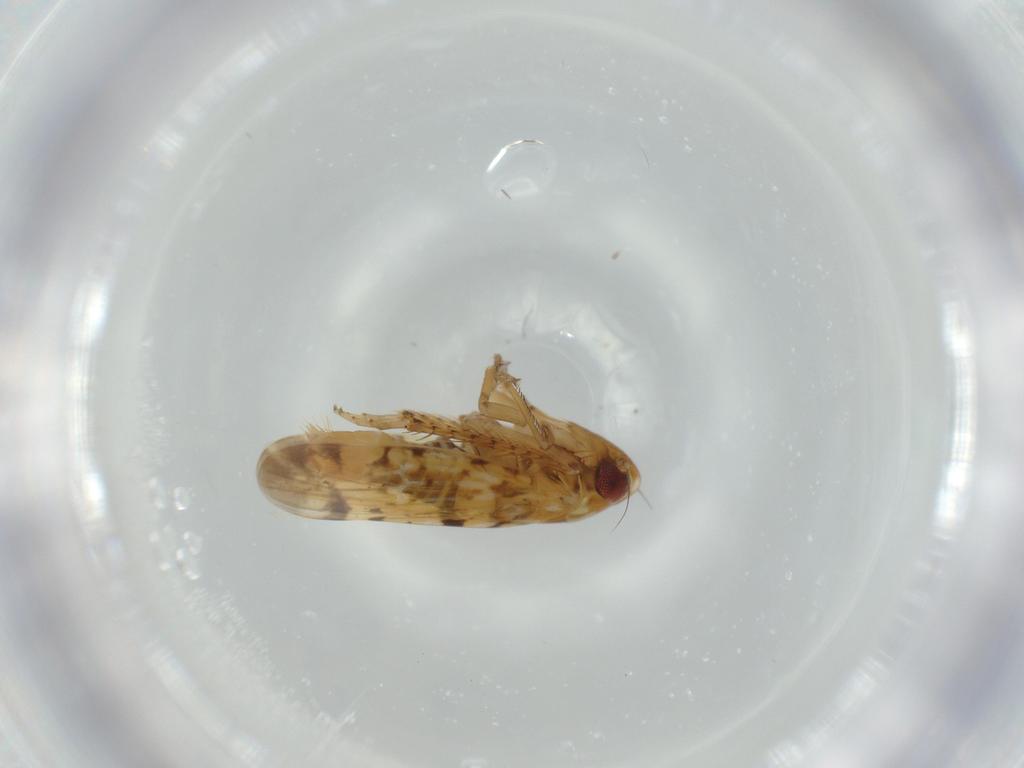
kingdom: Animalia
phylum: Arthropoda
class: Insecta
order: Hemiptera
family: Cicadellidae
